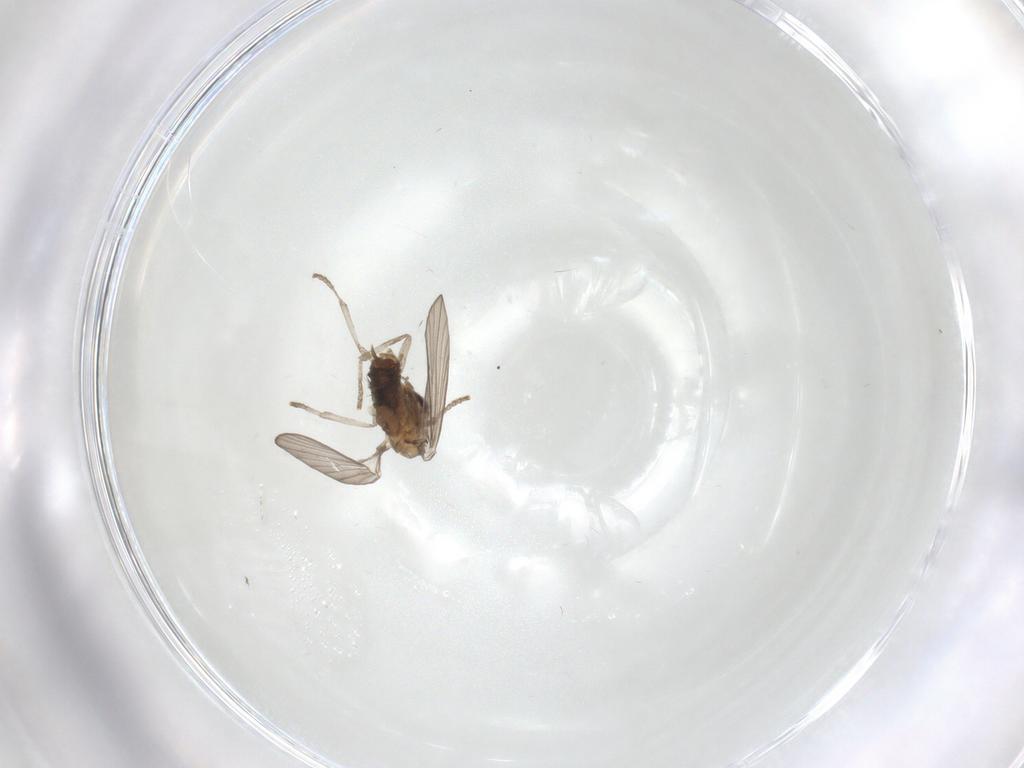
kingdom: Animalia
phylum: Arthropoda
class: Insecta
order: Diptera
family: Psychodidae
